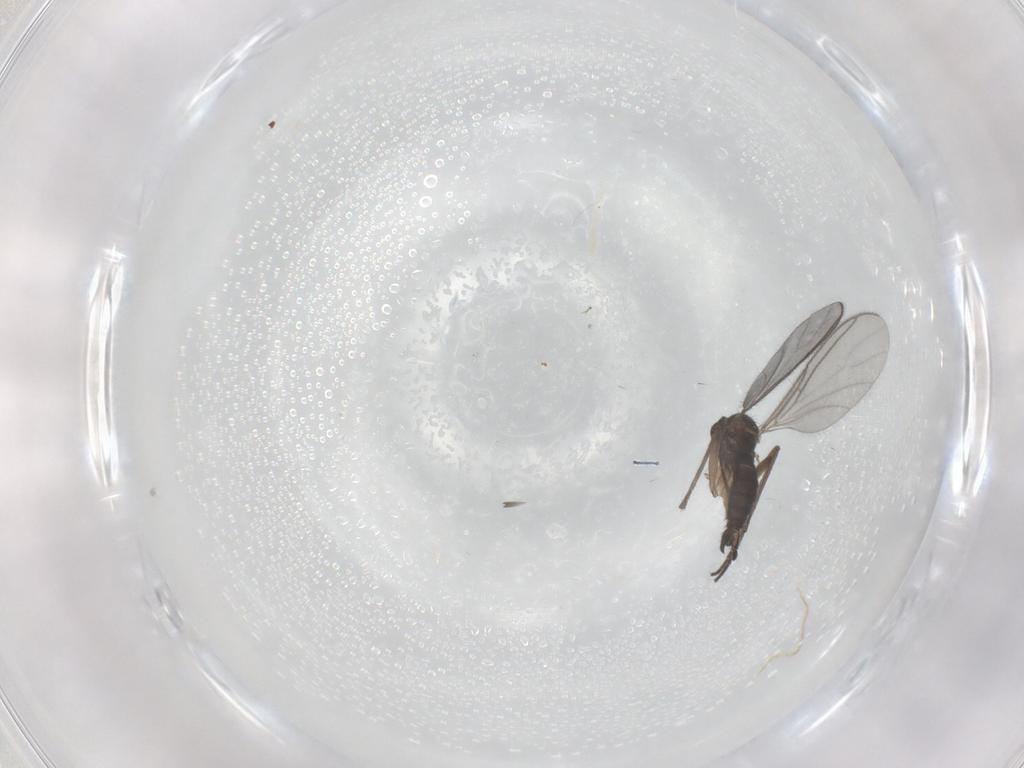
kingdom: Animalia
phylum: Arthropoda
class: Insecta
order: Diptera
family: Chironomidae
